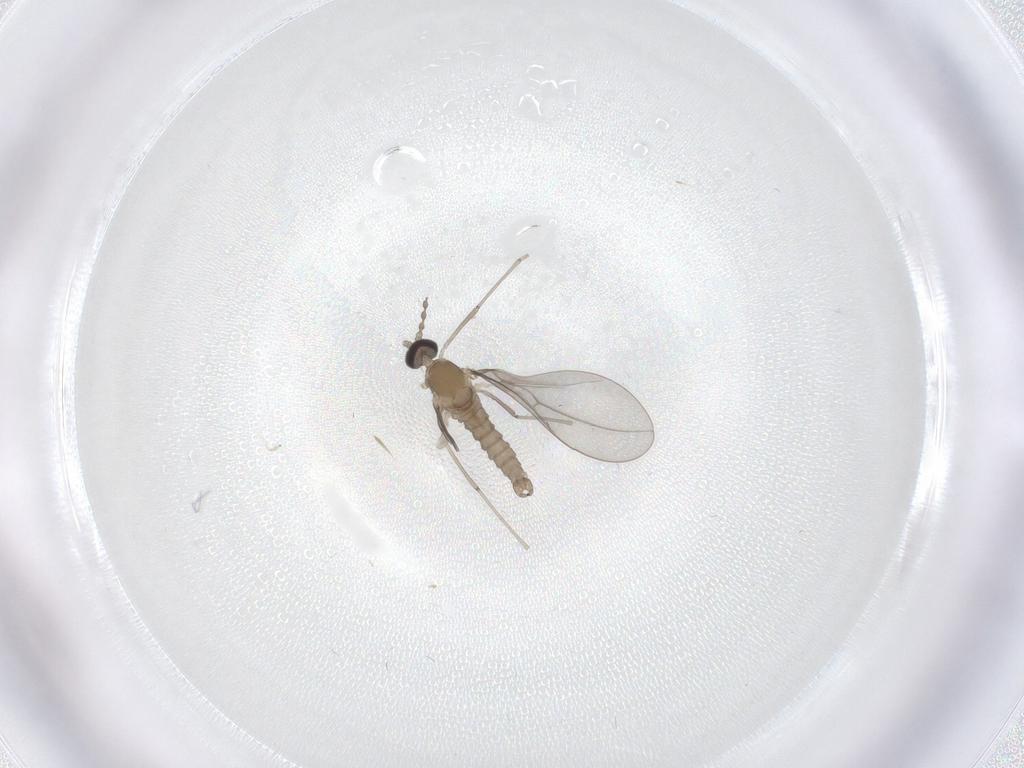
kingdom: Animalia
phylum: Arthropoda
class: Insecta
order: Diptera
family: Cecidomyiidae
